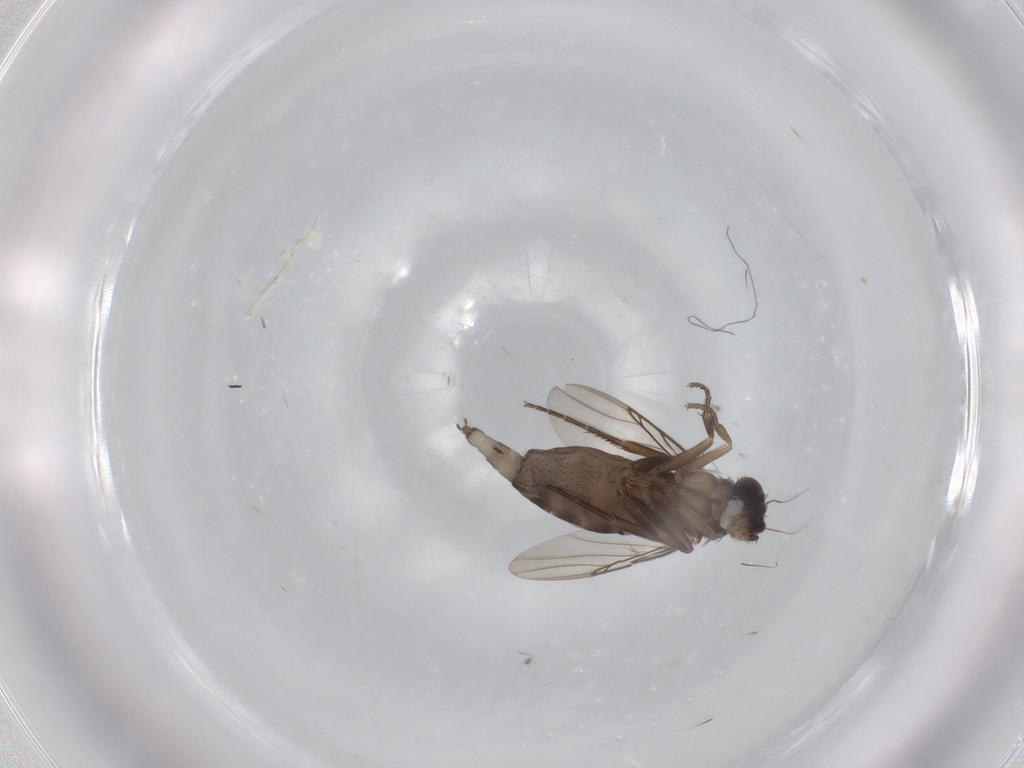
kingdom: Animalia
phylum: Arthropoda
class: Insecta
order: Diptera
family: Phoridae
